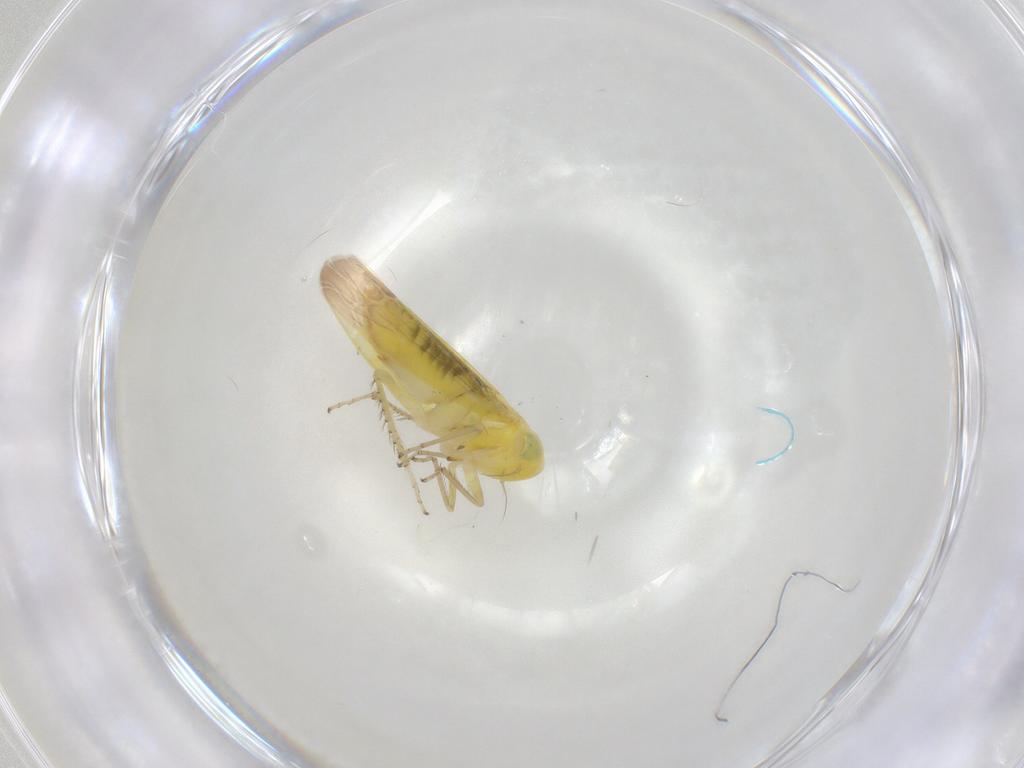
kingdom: Animalia
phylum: Arthropoda
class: Insecta
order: Hemiptera
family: Cicadellidae
